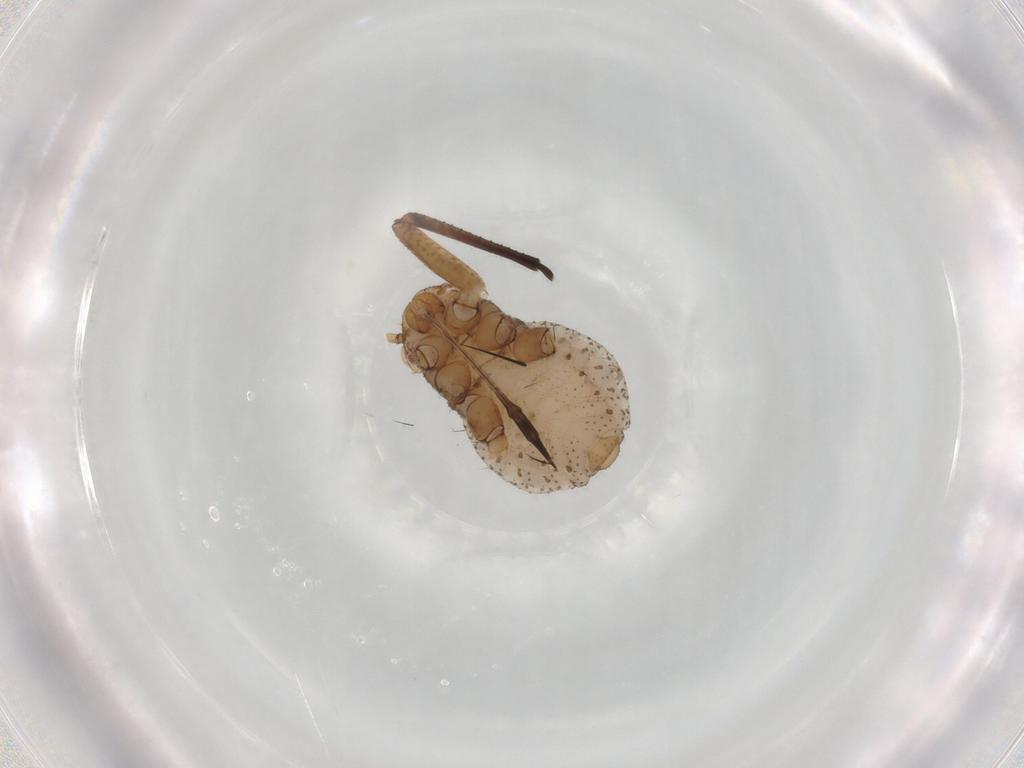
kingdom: Animalia
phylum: Arthropoda
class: Insecta
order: Hemiptera
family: Aphididae
